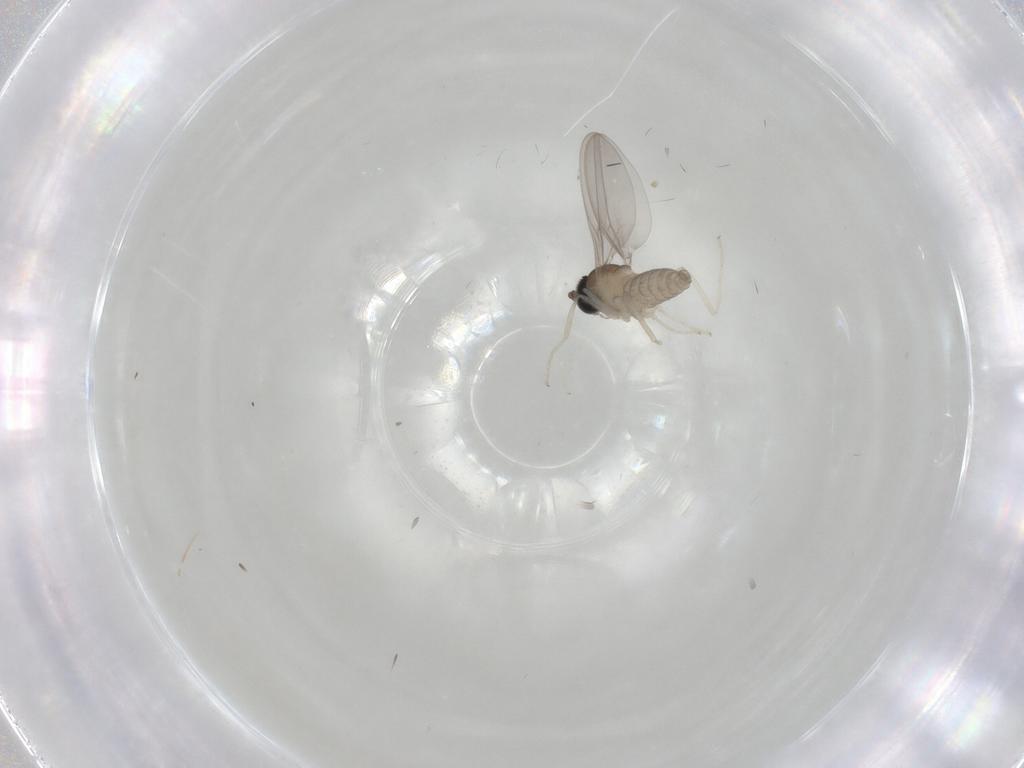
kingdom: Animalia
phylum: Arthropoda
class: Insecta
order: Diptera
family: Cecidomyiidae
